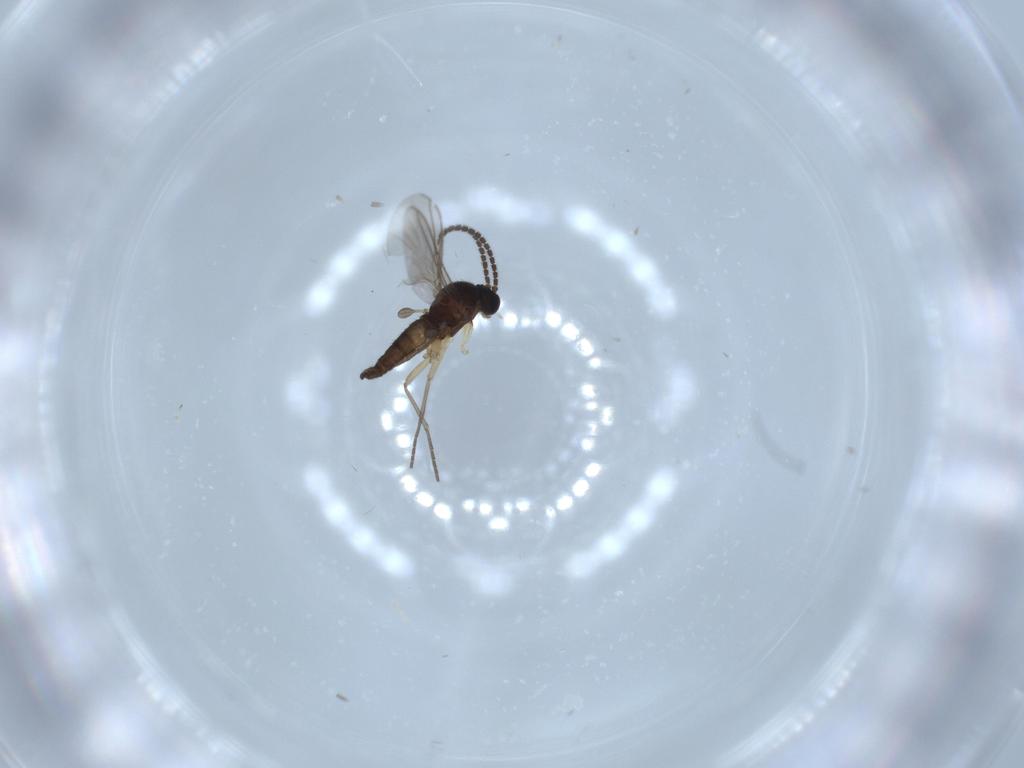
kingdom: Animalia
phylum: Arthropoda
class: Insecta
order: Diptera
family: Sciaridae
